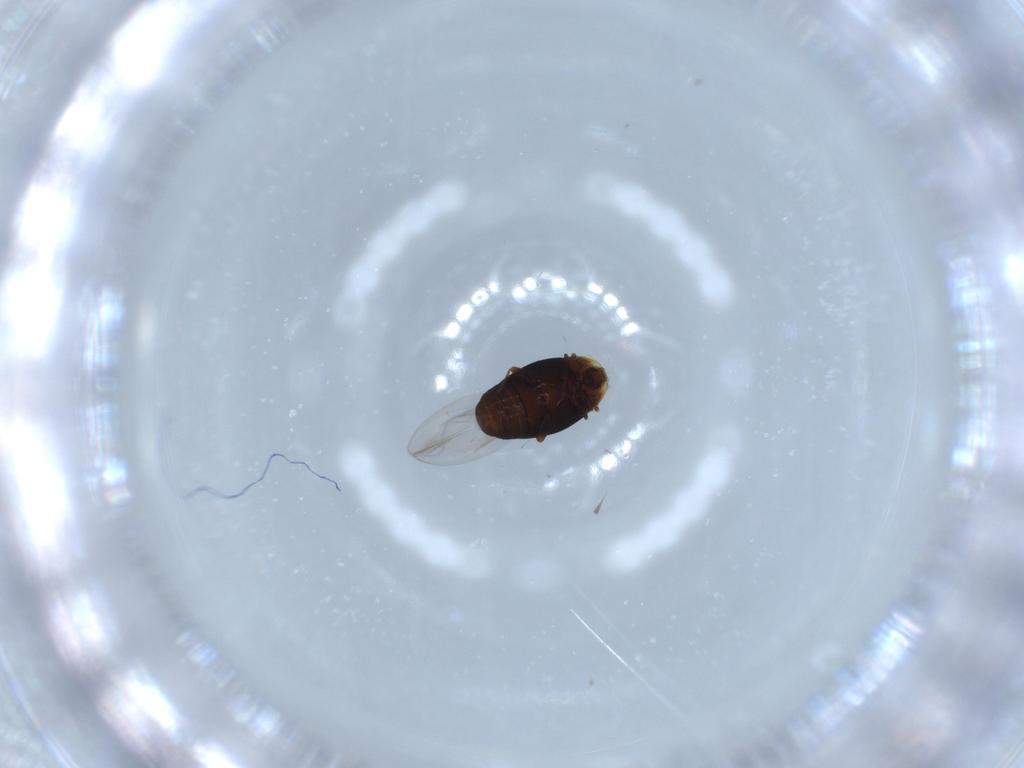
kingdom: Animalia
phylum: Arthropoda
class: Insecta
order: Coleoptera
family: Corylophidae
